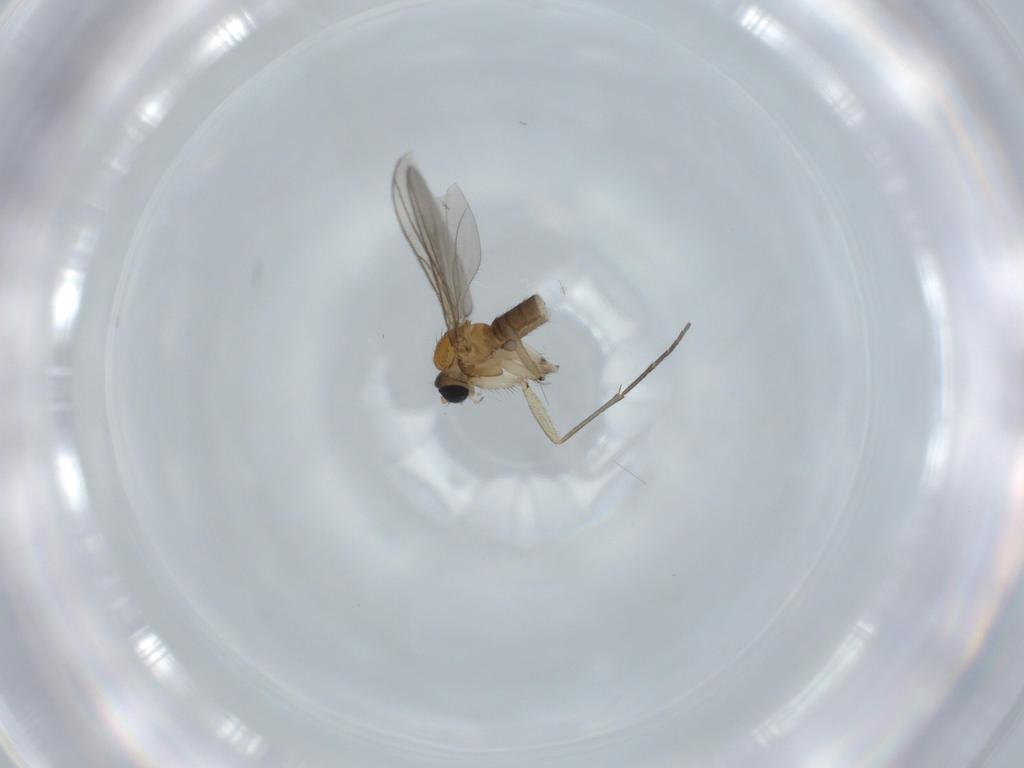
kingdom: Animalia
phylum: Arthropoda
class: Insecta
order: Diptera
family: Sciaridae
